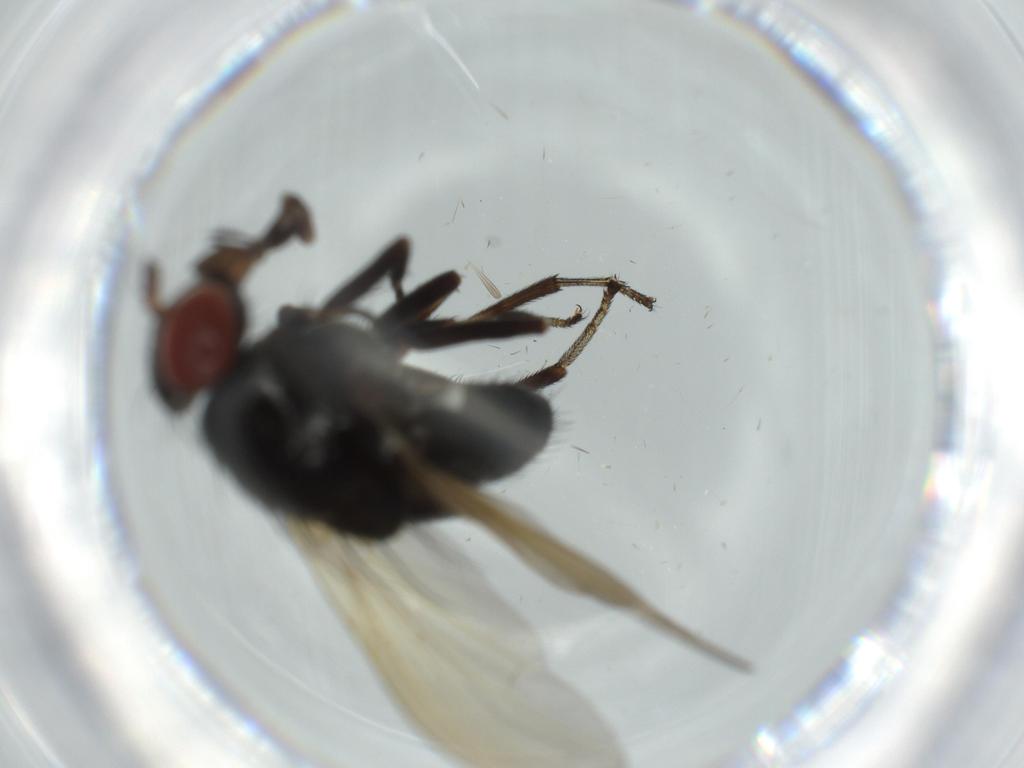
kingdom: Animalia
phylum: Arthropoda
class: Insecta
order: Diptera
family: Lauxaniidae
